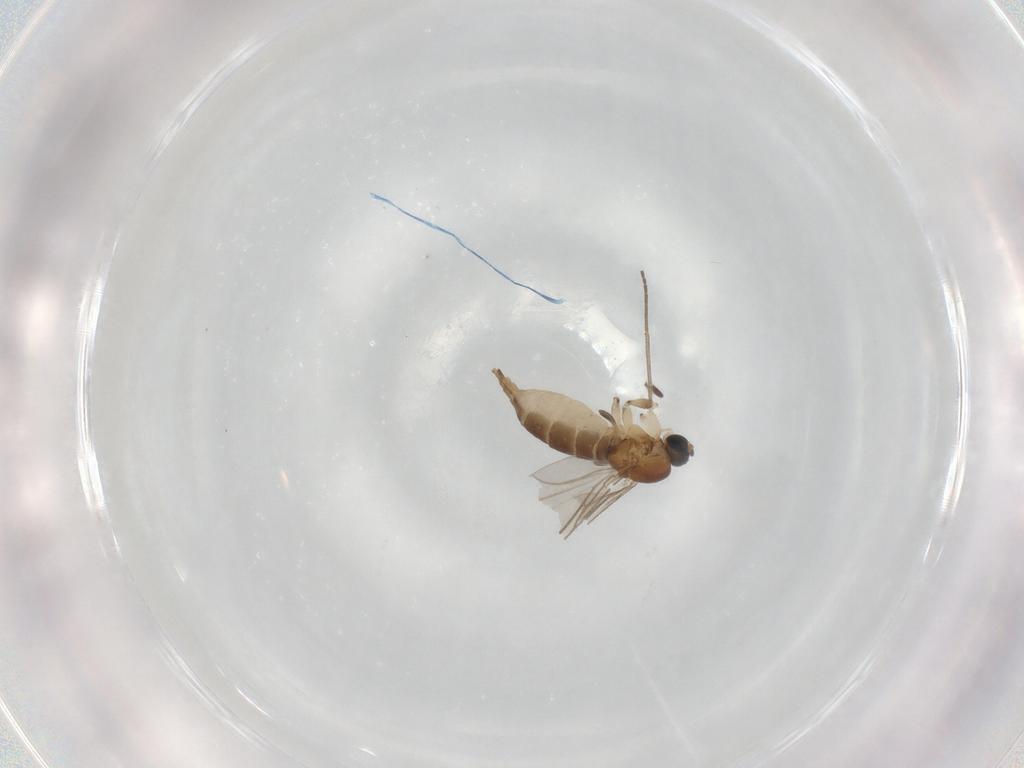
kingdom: Animalia
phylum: Arthropoda
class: Insecta
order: Diptera
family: Sciaridae
